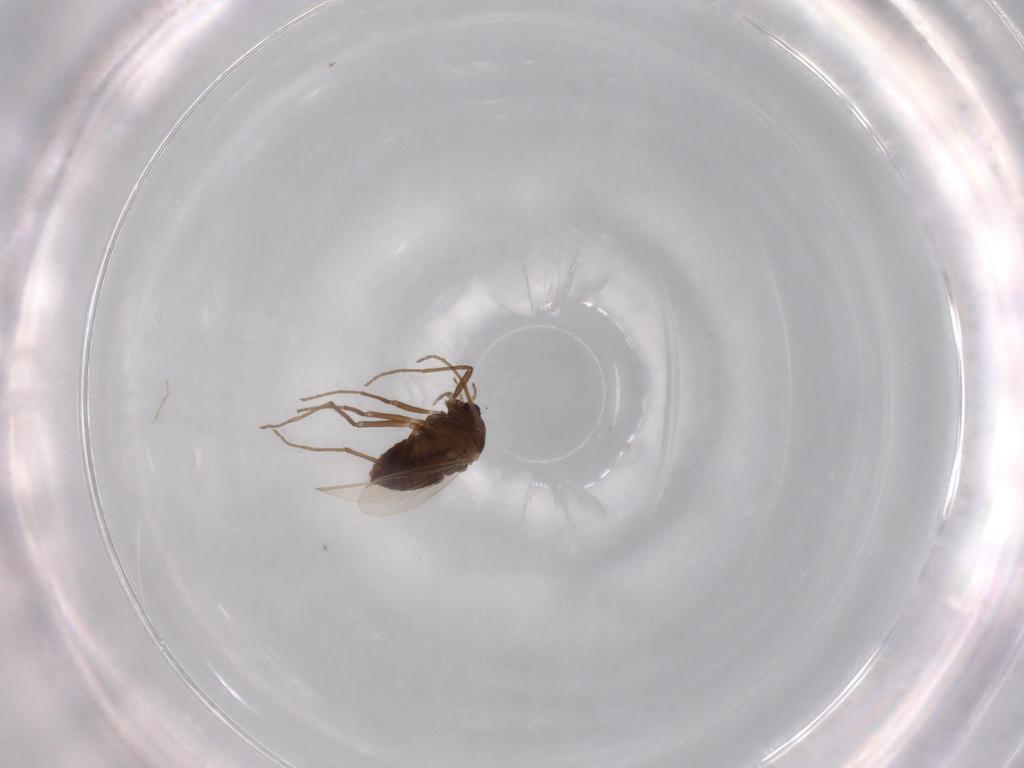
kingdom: Animalia
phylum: Arthropoda
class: Insecta
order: Diptera
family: Chironomidae
